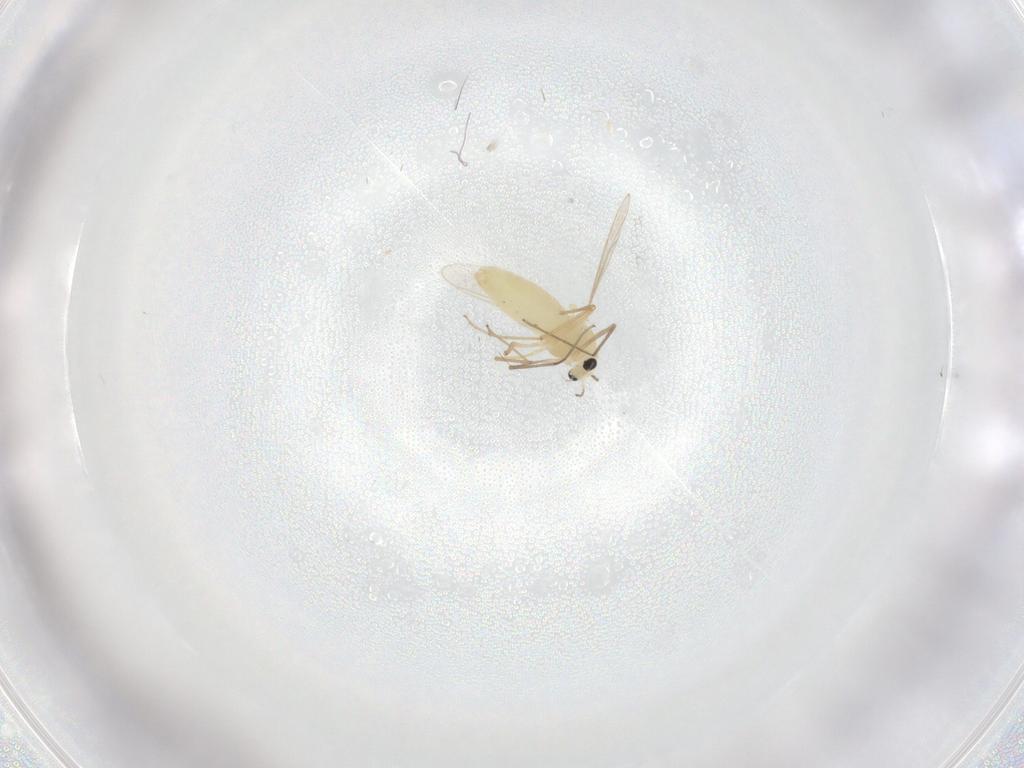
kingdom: Animalia
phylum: Arthropoda
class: Insecta
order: Diptera
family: Chironomidae
